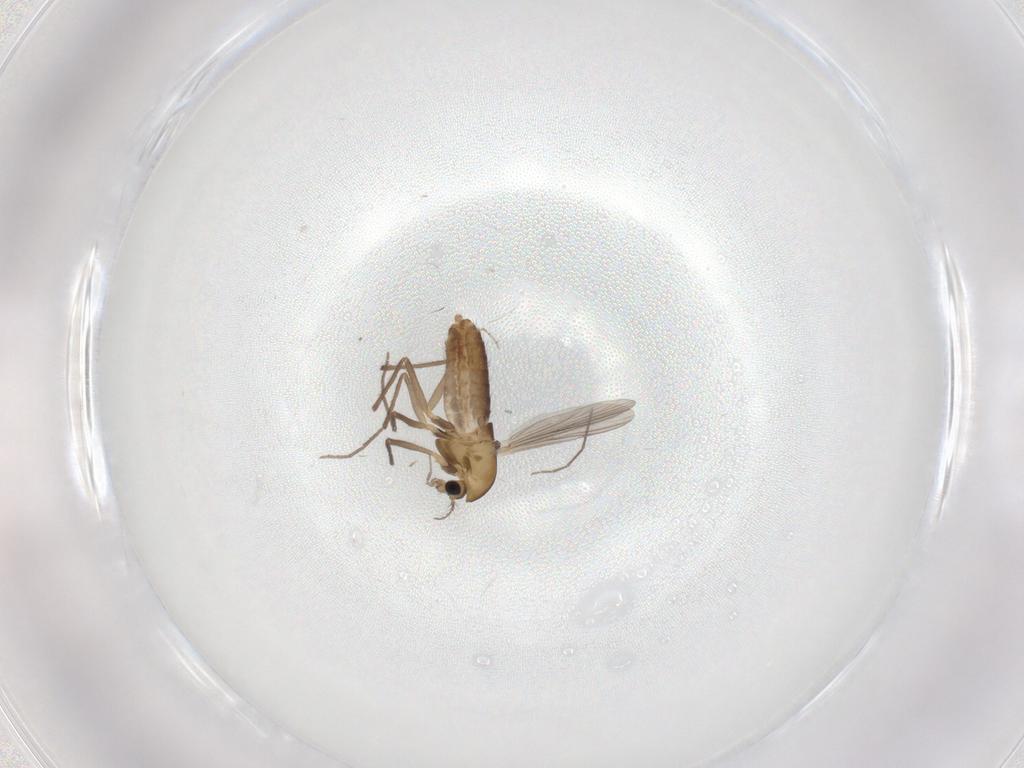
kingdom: Animalia
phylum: Arthropoda
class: Insecta
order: Diptera
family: Chironomidae
